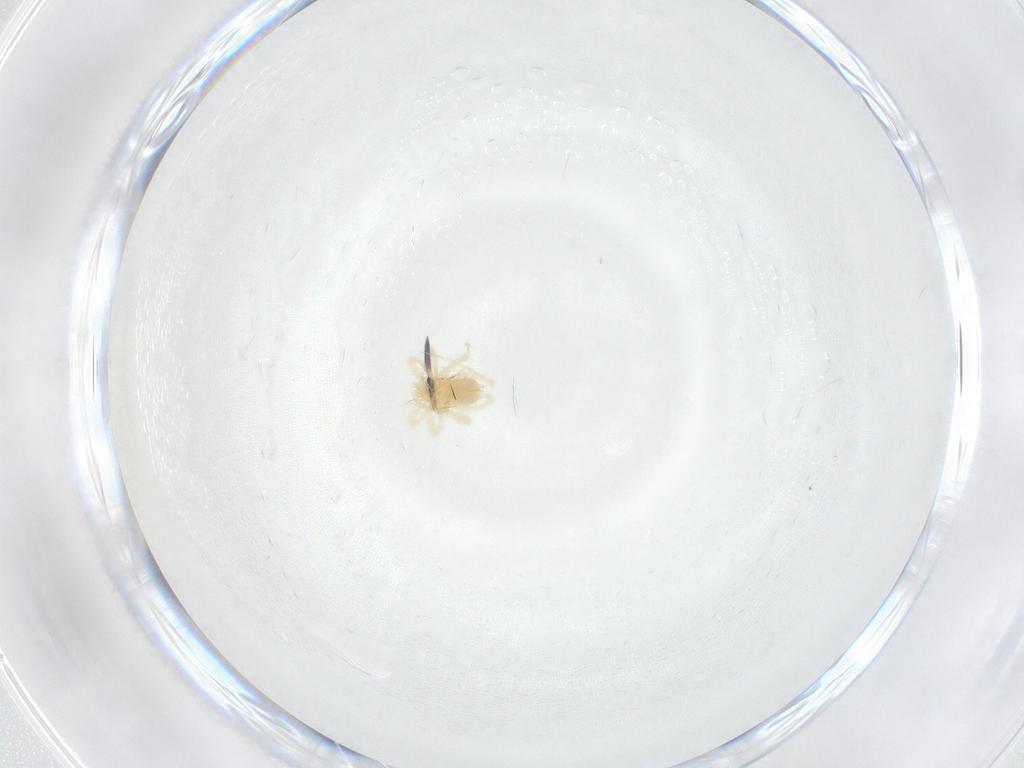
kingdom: Animalia
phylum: Arthropoda
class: Arachnida
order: Trombidiformes
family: Anystidae
